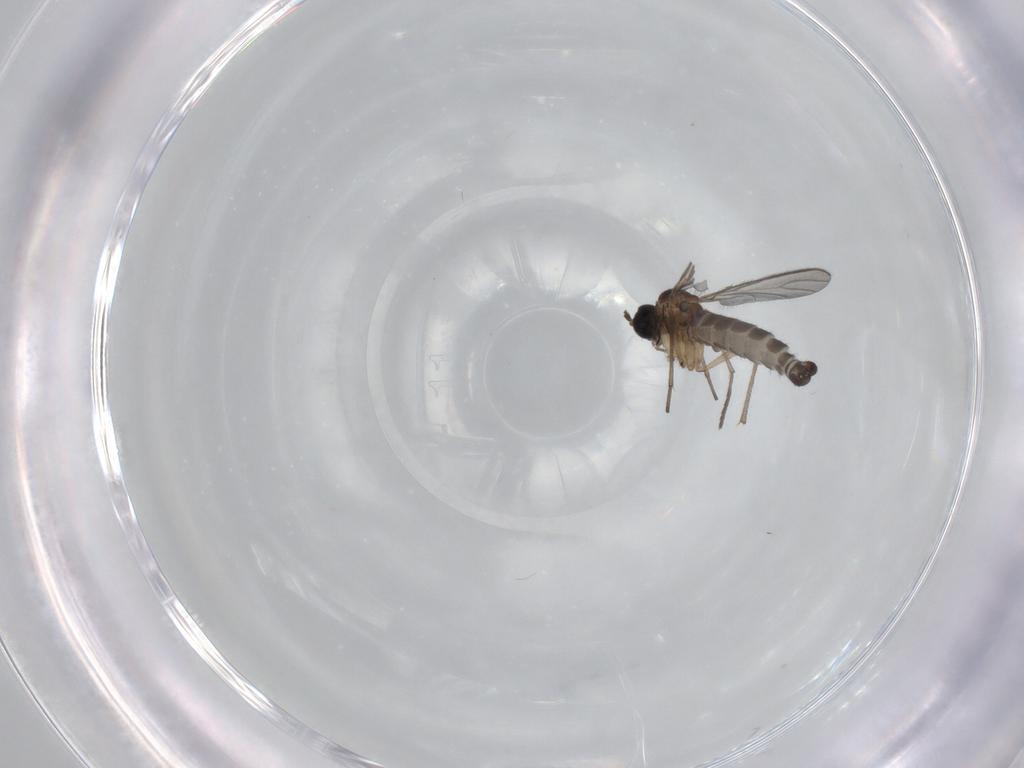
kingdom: Animalia
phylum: Arthropoda
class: Insecta
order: Diptera
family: Sciaridae
